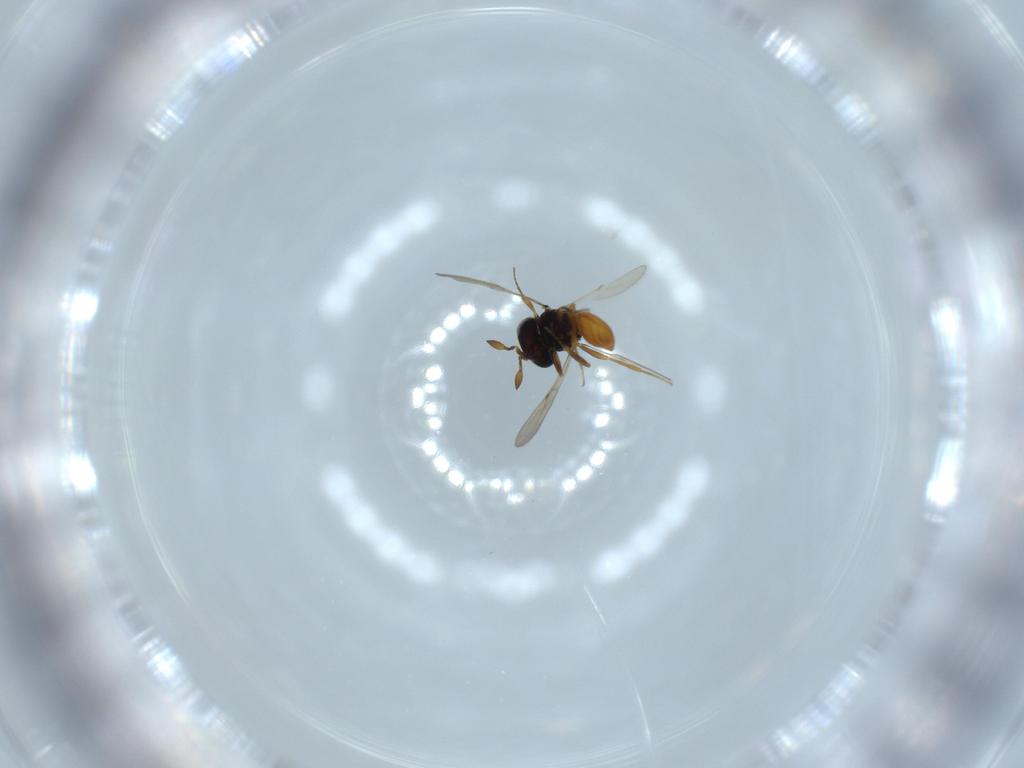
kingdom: Animalia
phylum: Arthropoda
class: Insecta
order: Hymenoptera
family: Scelionidae
